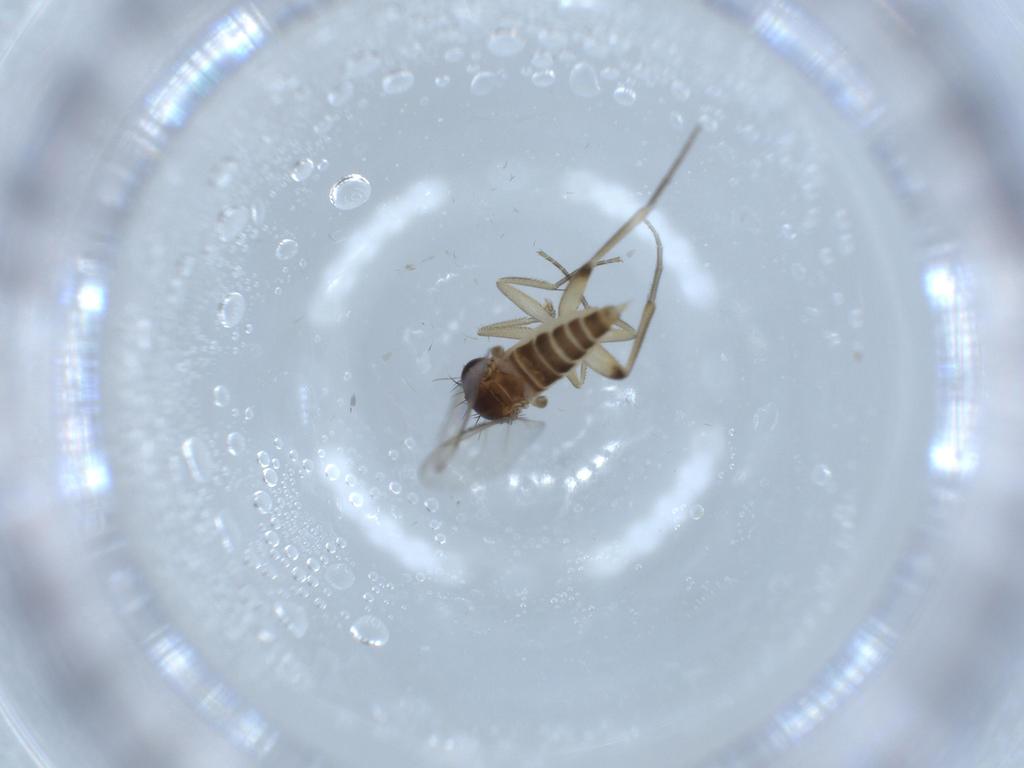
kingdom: Animalia
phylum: Arthropoda
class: Insecta
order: Diptera
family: Phoridae
